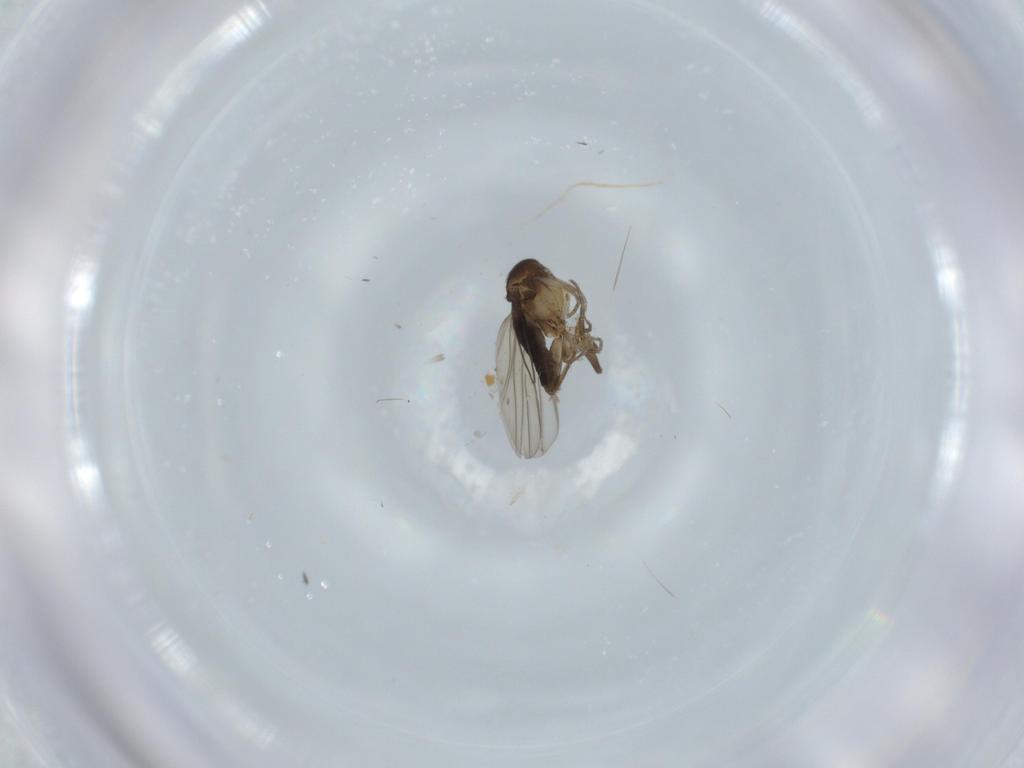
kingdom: Animalia
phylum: Arthropoda
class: Insecta
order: Diptera
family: Phoridae
